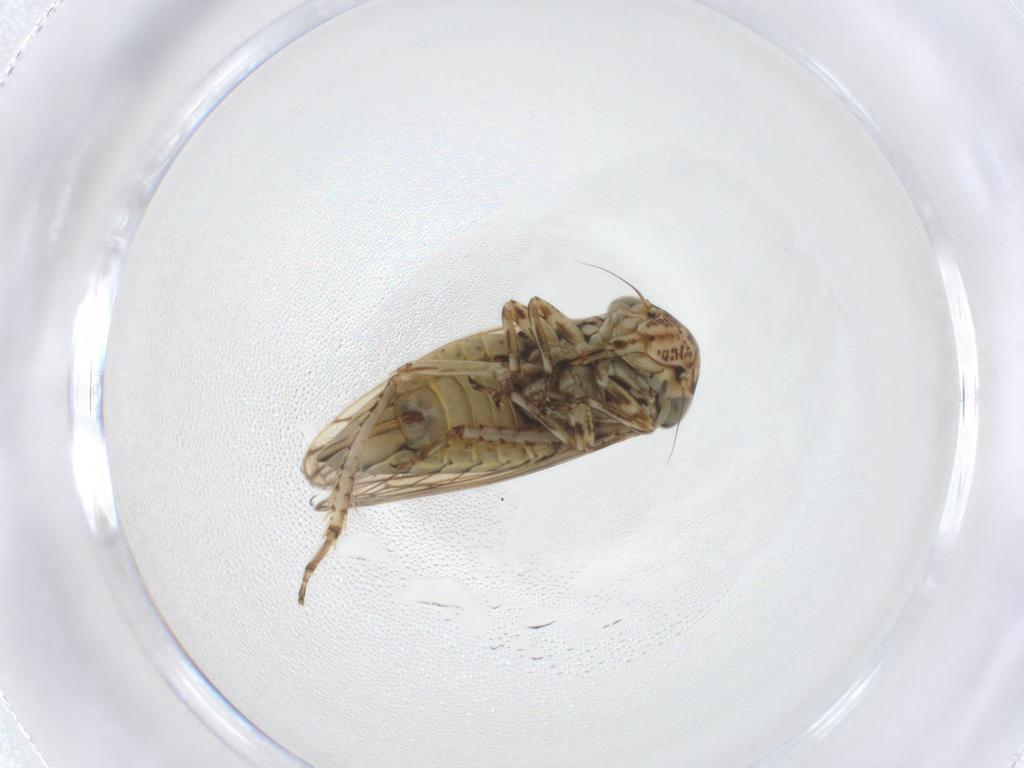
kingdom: Animalia
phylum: Arthropoda
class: Insecta
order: Hemiptera
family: Cicadellidae
